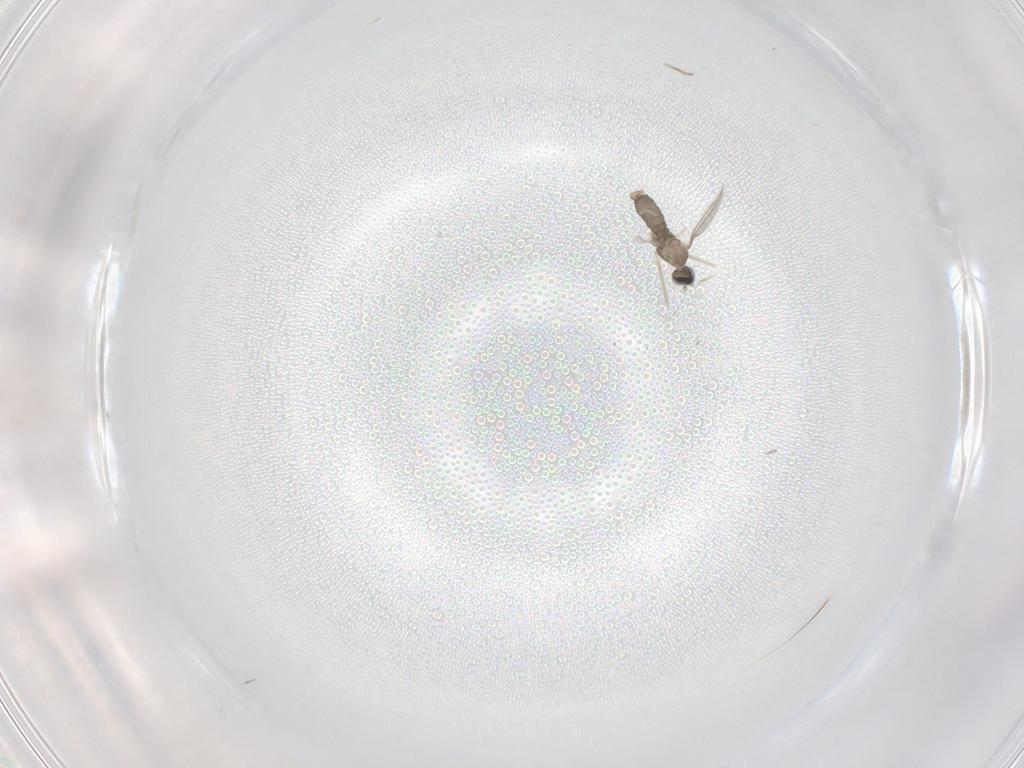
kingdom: Animalia
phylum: Arthropoda
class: Insecta
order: Diptera
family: Cecidomyiidae
